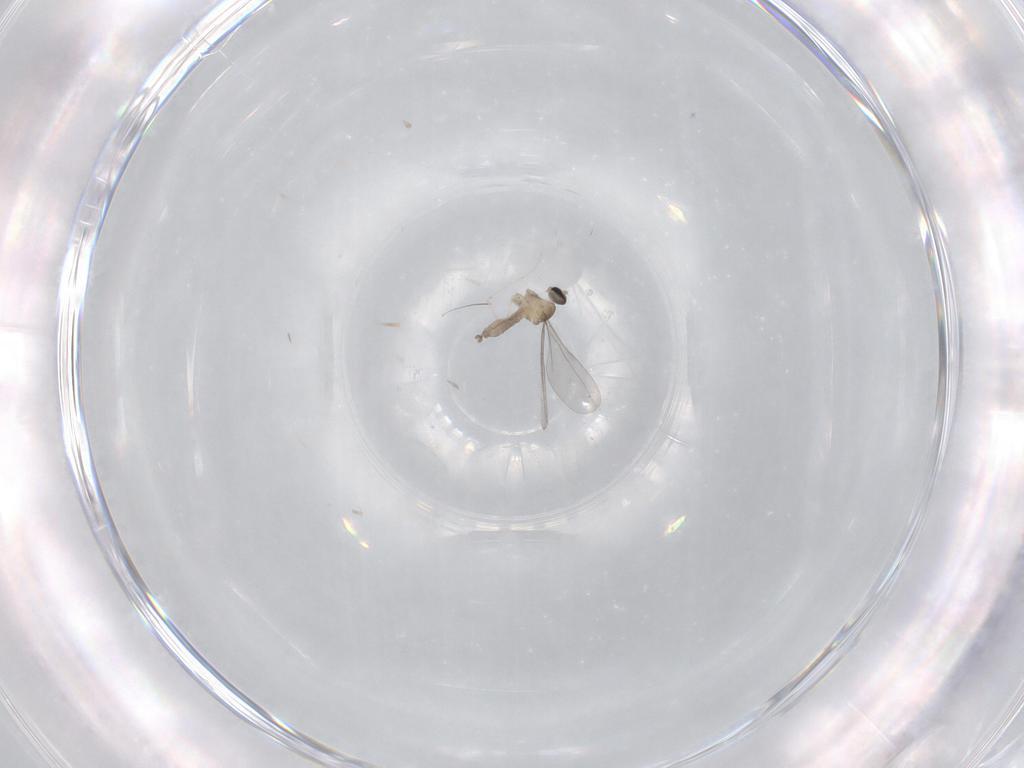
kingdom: Animalia
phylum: Arthropoda
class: Insecta
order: Diptera
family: Cecidomyiidae
